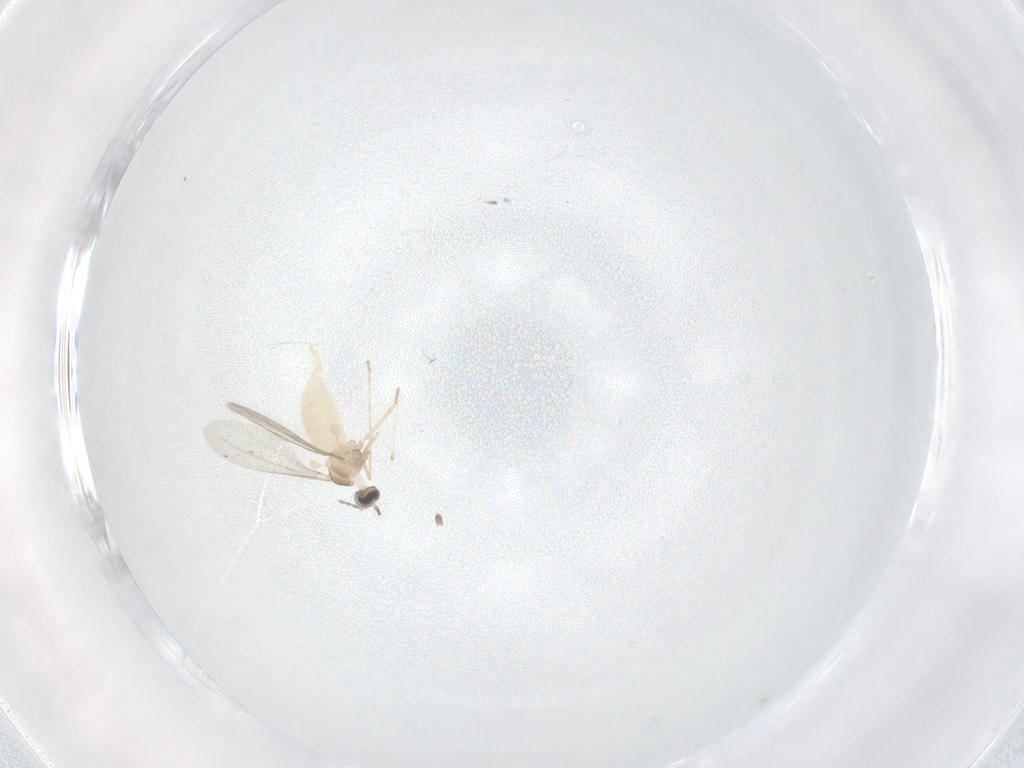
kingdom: Animalia
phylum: Arthropoda
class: Insecta
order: Diptera
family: Cecidomyiidae
